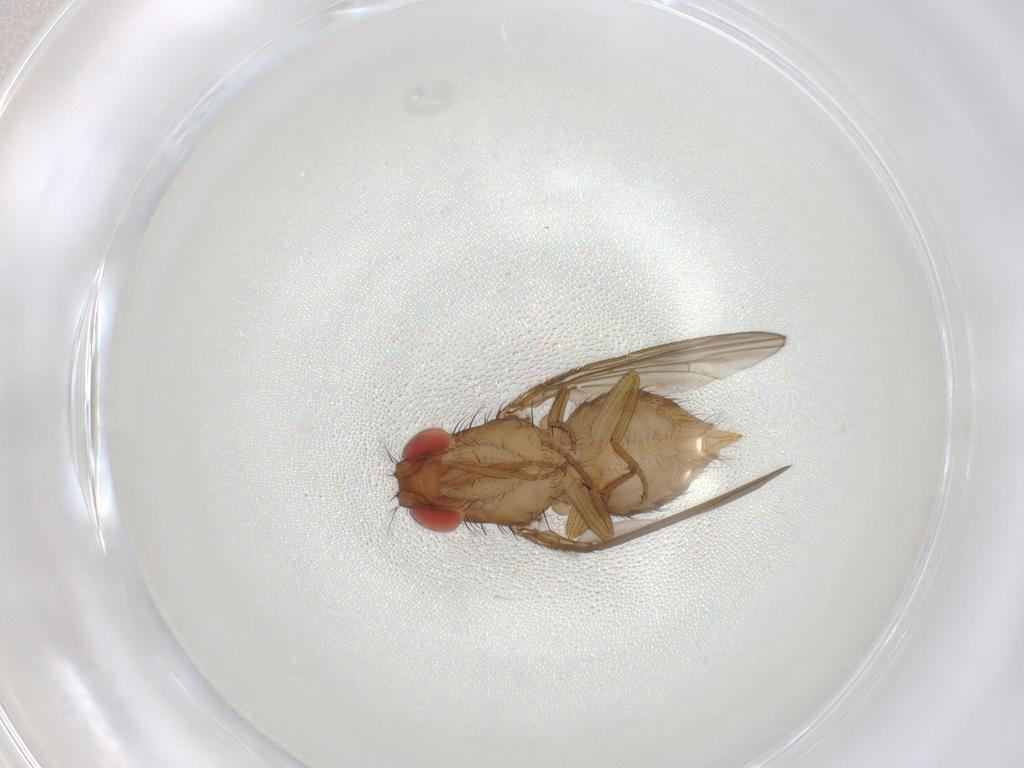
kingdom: Animalia
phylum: Arthropoda
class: Insecta
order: Diptera
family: Drosophilidae
